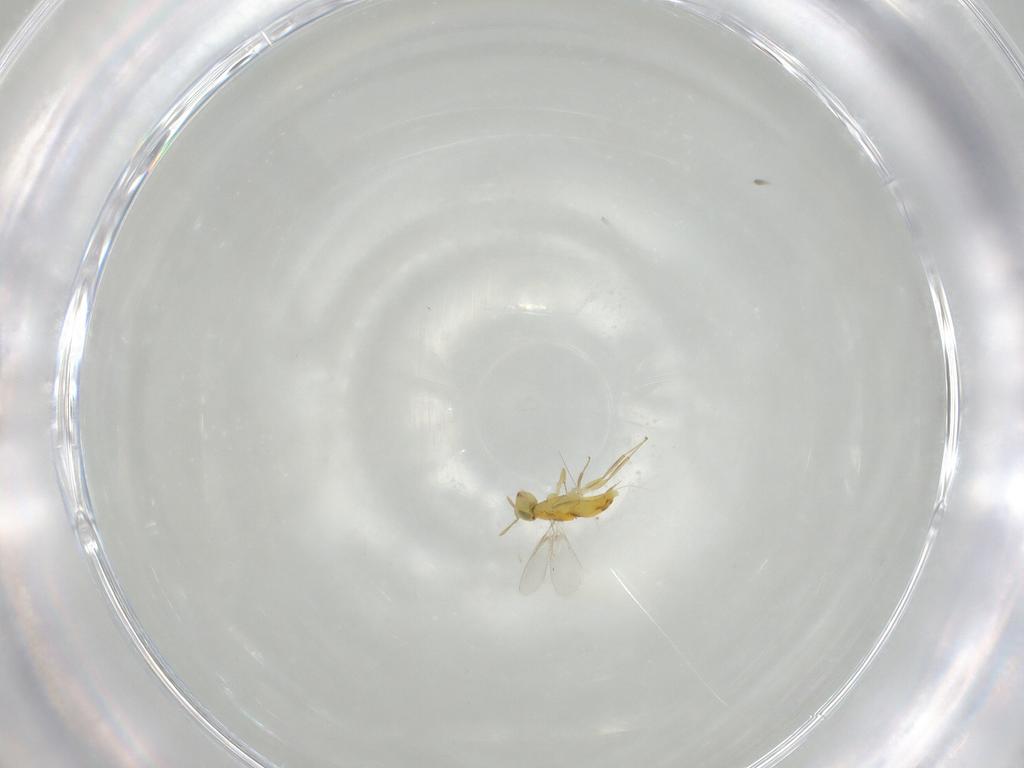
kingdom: Animalia
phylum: Arthropoda
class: Insecta
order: Hymenoptera
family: Aphelinidae
